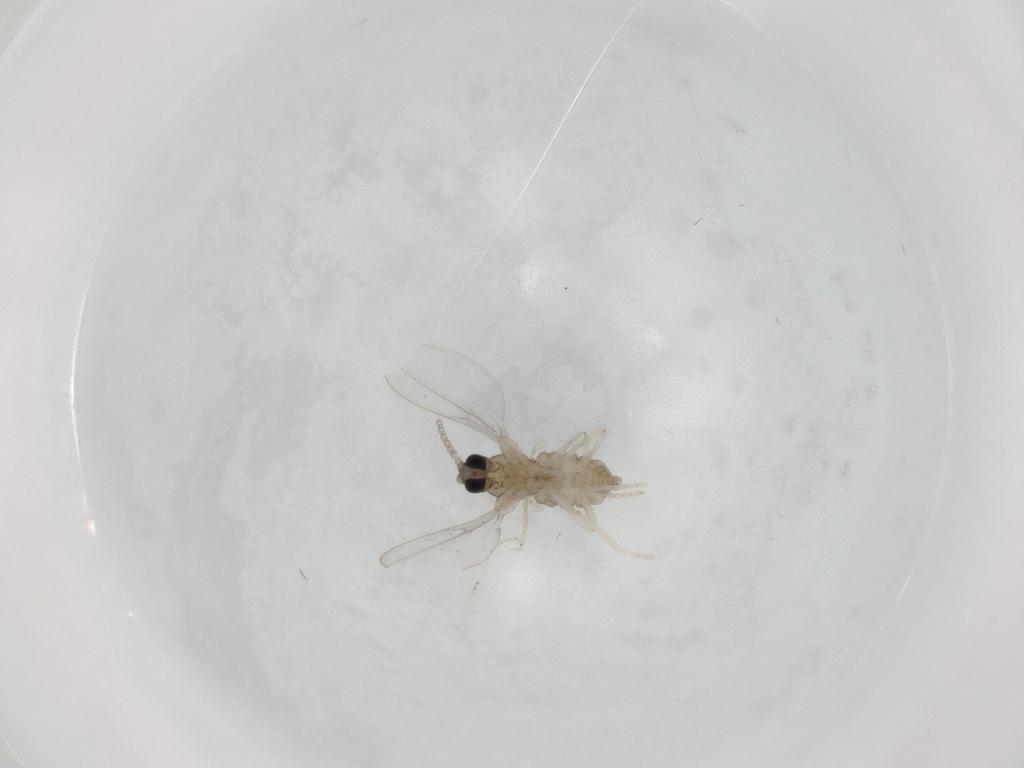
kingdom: Animalia
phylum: Arthropoda
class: Insecta
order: Diptera
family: Cecidomyiidae
